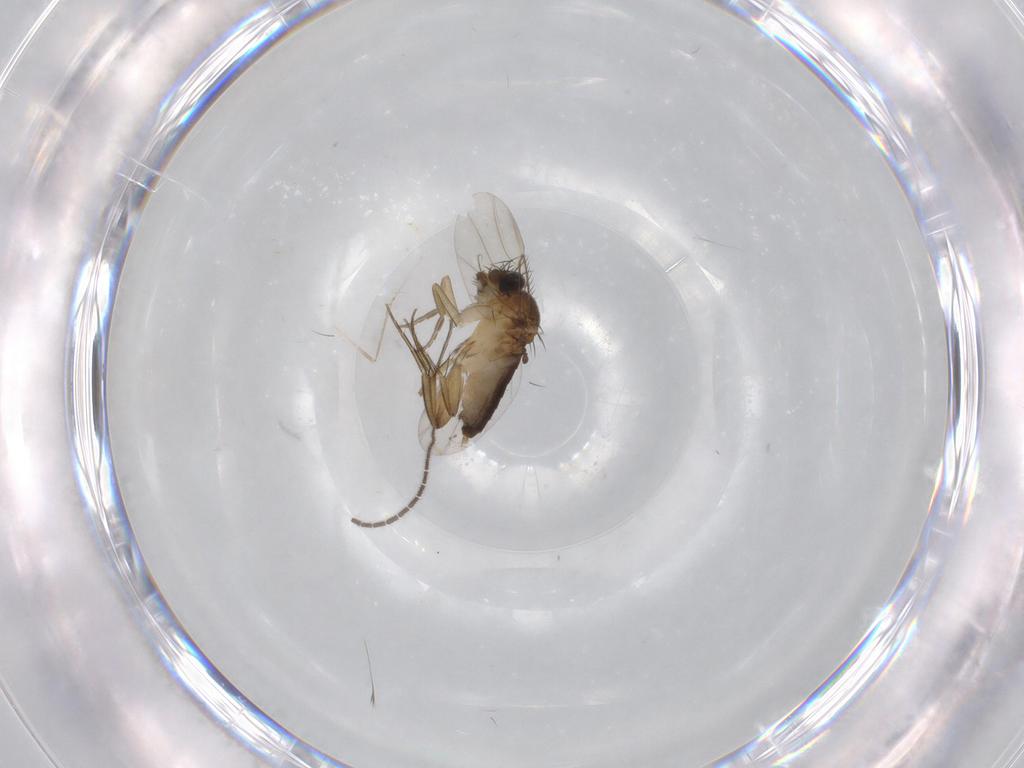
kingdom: Animalia
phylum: Arthropoda
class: Insecta
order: Diptera
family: Phoridae
